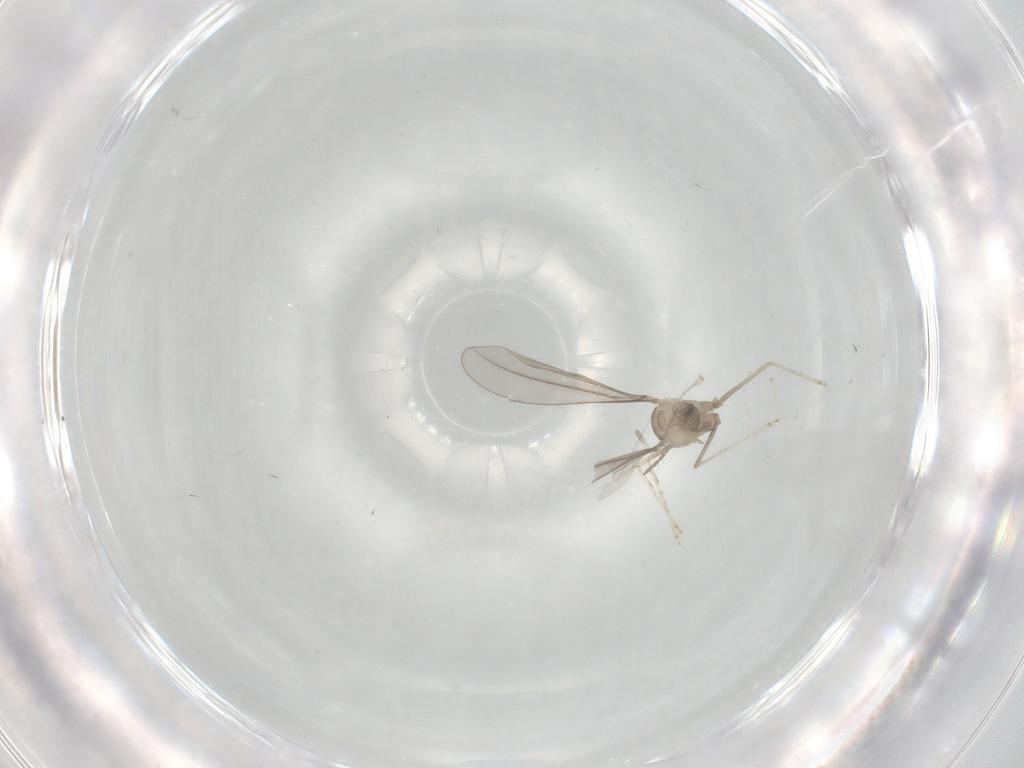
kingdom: Animalia
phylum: Arthropoda
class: Insecta
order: Diptera
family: Cecidomyiidae
